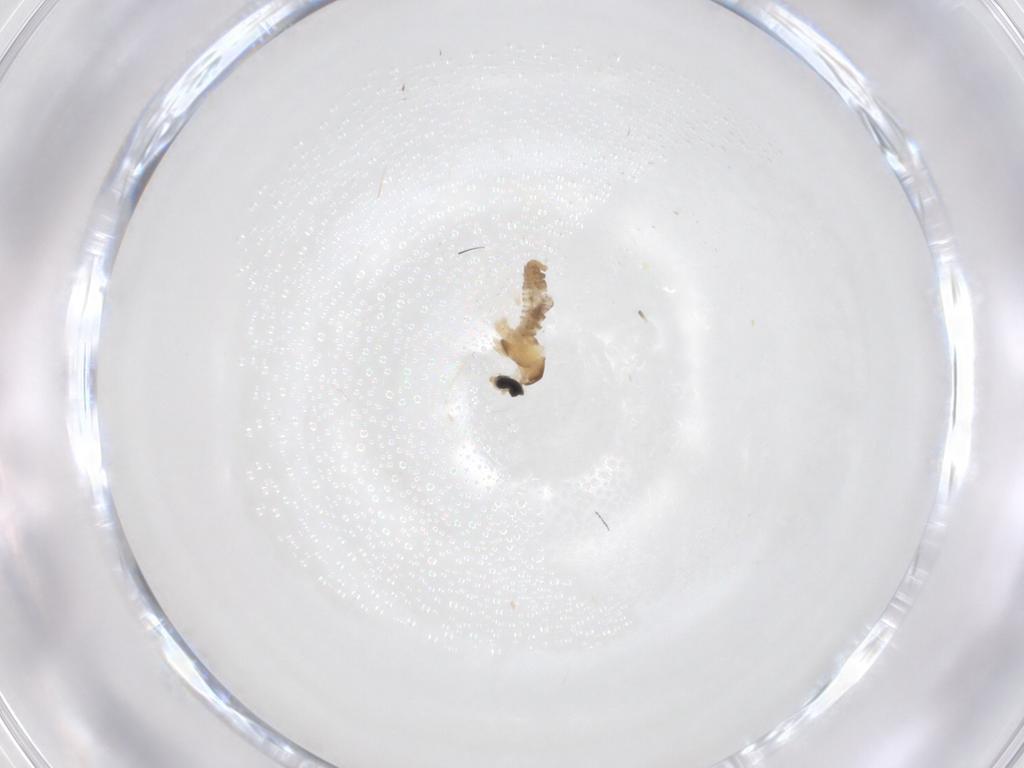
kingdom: Animalia
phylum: Arthropoda
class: Insecta
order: Diptera
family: Cecidomyiidae
